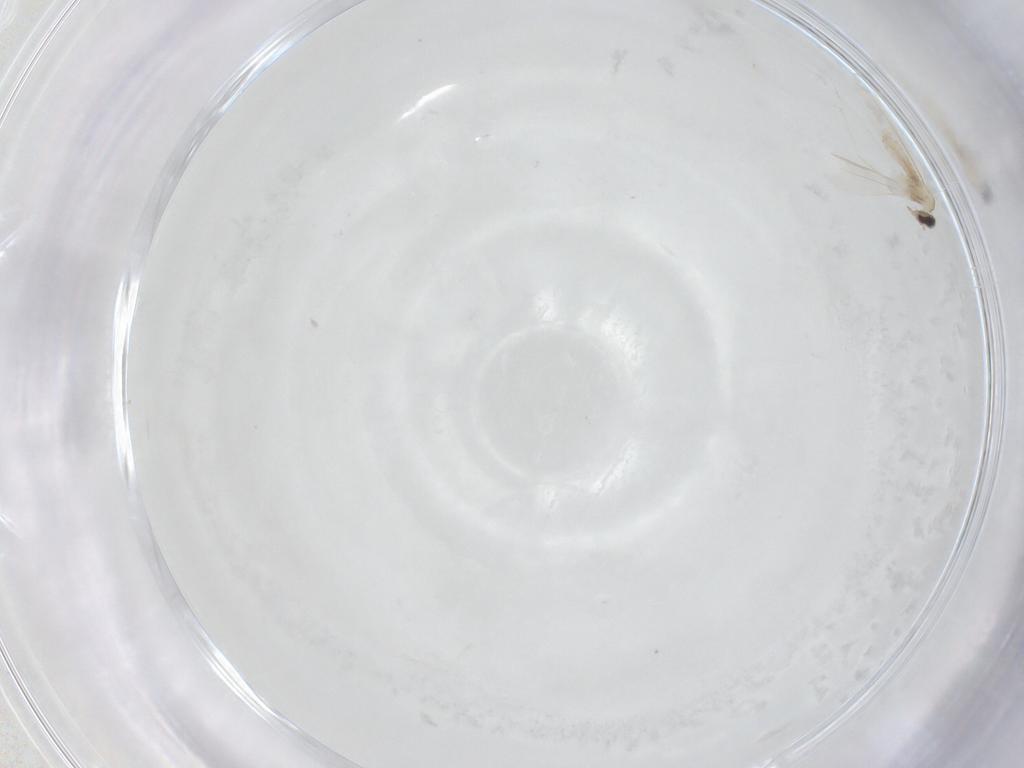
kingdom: Animalia
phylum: Arthropoda
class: Insecta
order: Diptera
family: Cecidomyiidae
